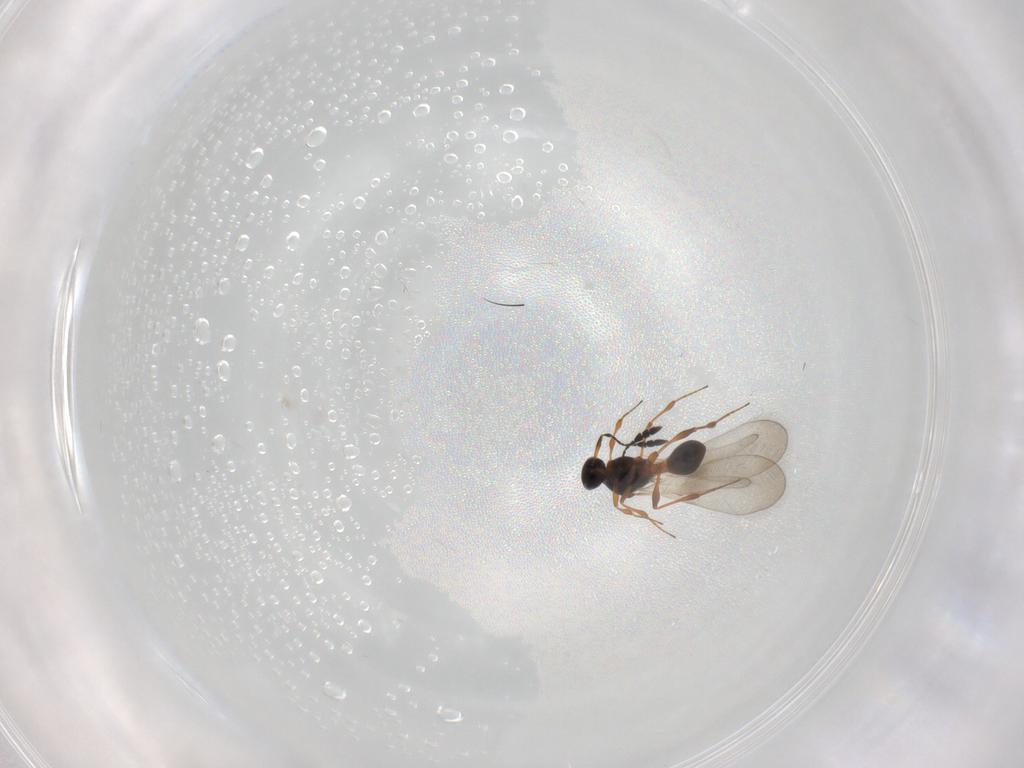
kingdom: Animalia
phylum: Arthropoda
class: Insecta
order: Hymenoptera
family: Platygastridae
